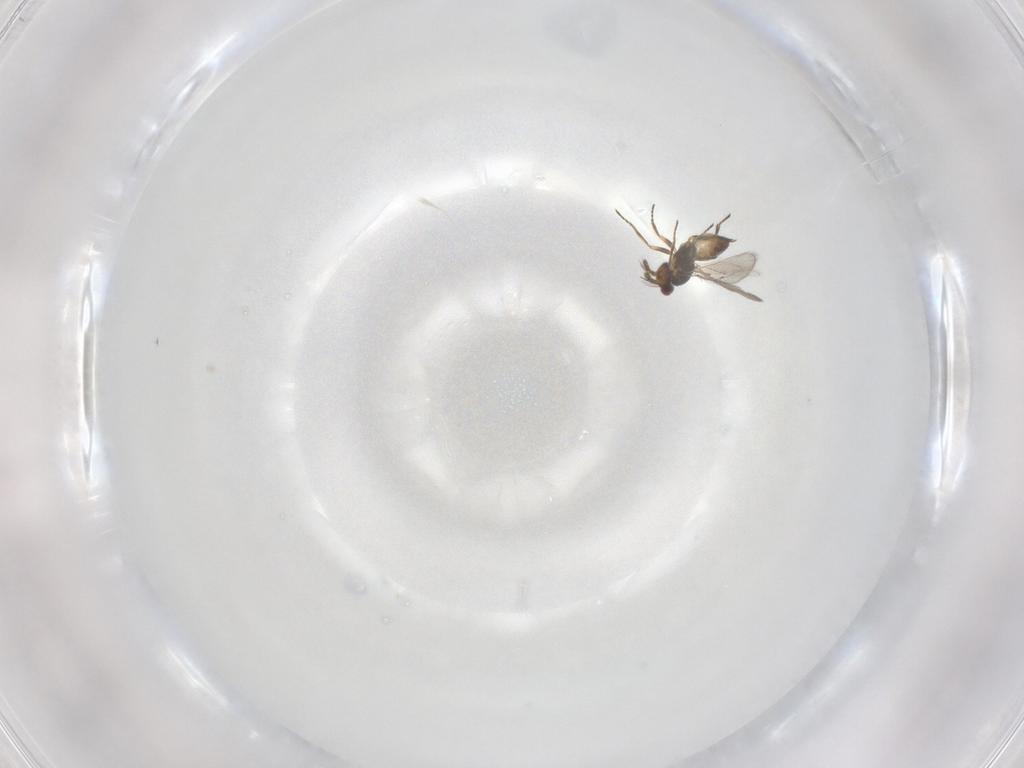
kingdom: Animalia
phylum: Arthropoda
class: Insecta
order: Hymenoptera
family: Eulophidae
